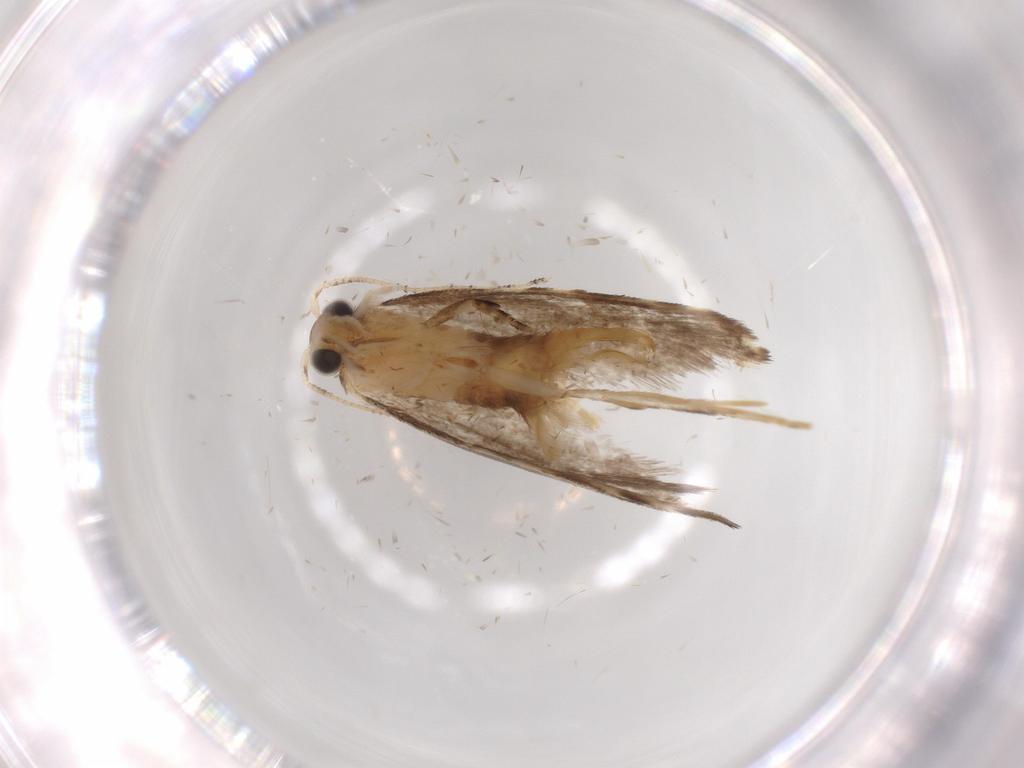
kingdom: Animalia
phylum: Arthropoda
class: Insecta
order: Lepidoptera
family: Tineidae
